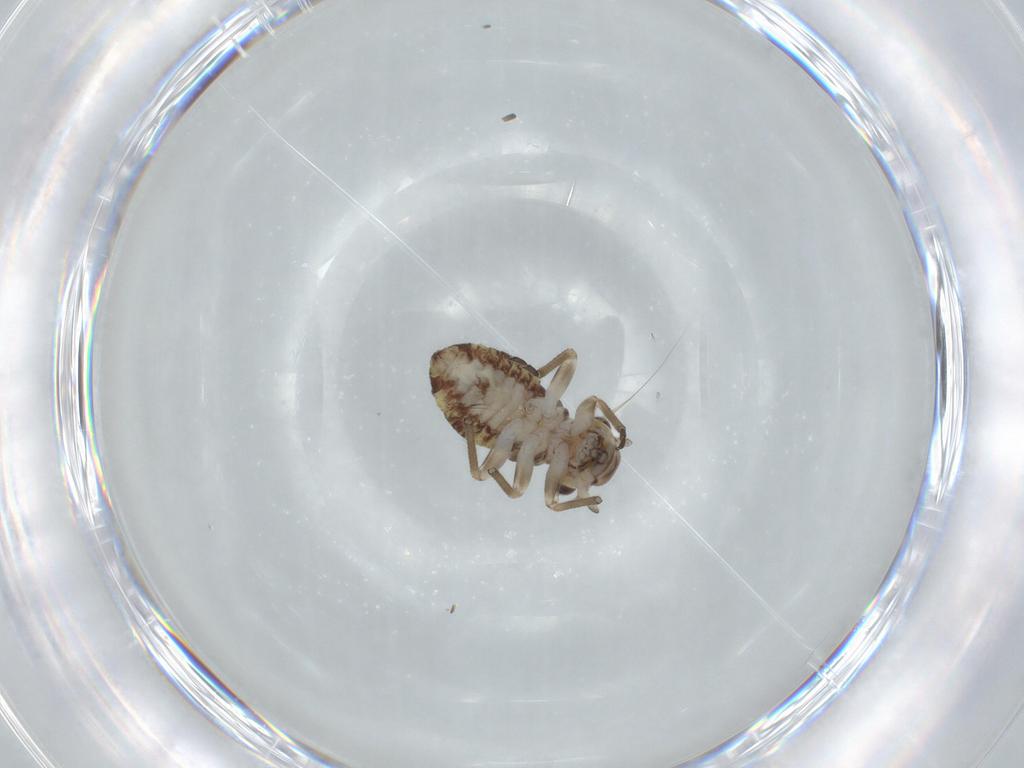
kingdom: Animalia
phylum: Arthropoda
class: Insecta
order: Psocodea
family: Psocidae
